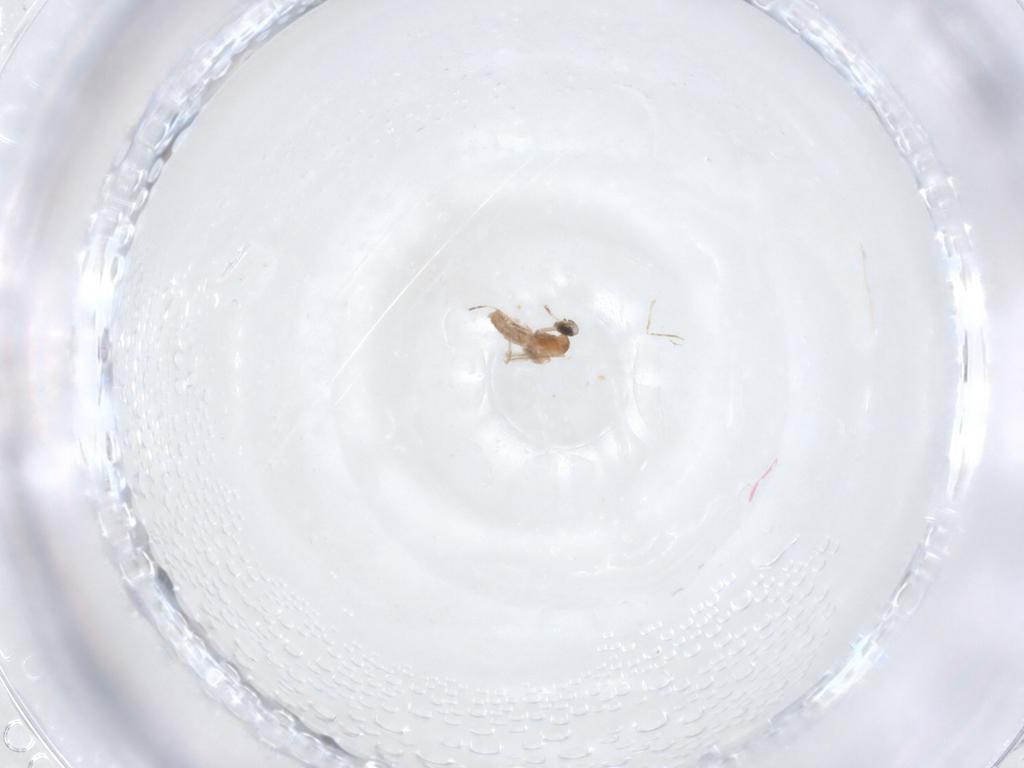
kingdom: Animalia
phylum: Arthropoda
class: Insecta
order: Diptera
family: Cecidomyiidae
